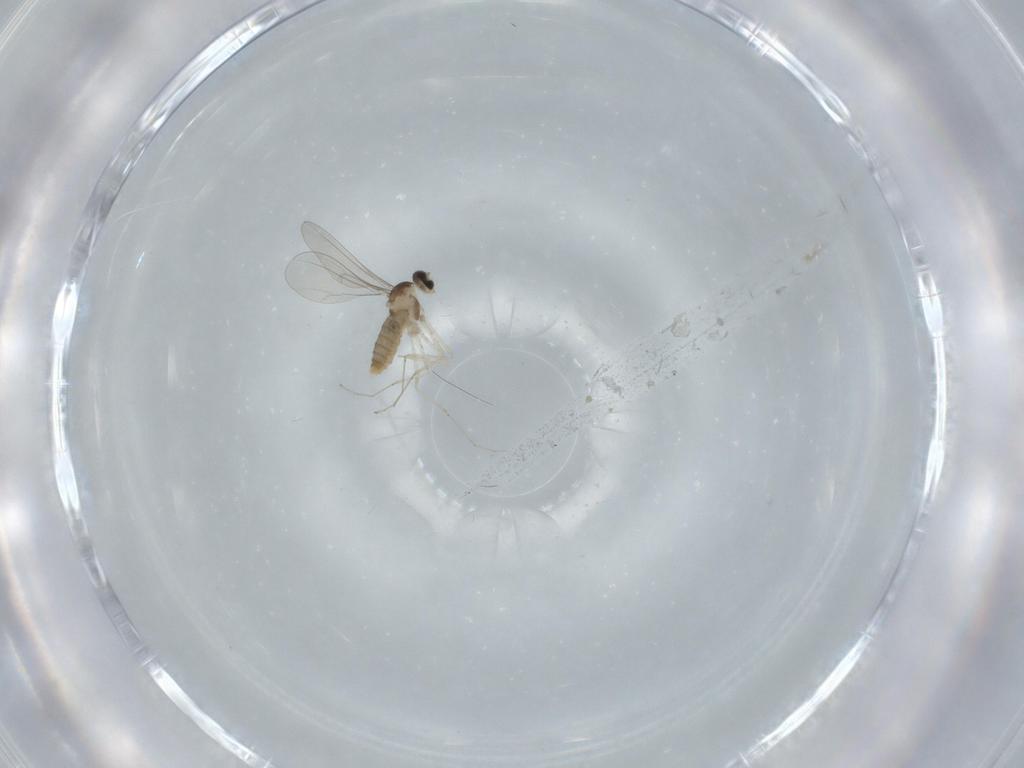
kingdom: Animalia
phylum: Arthropoda
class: Insecta
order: Diptera
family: Cecidomyiidae
